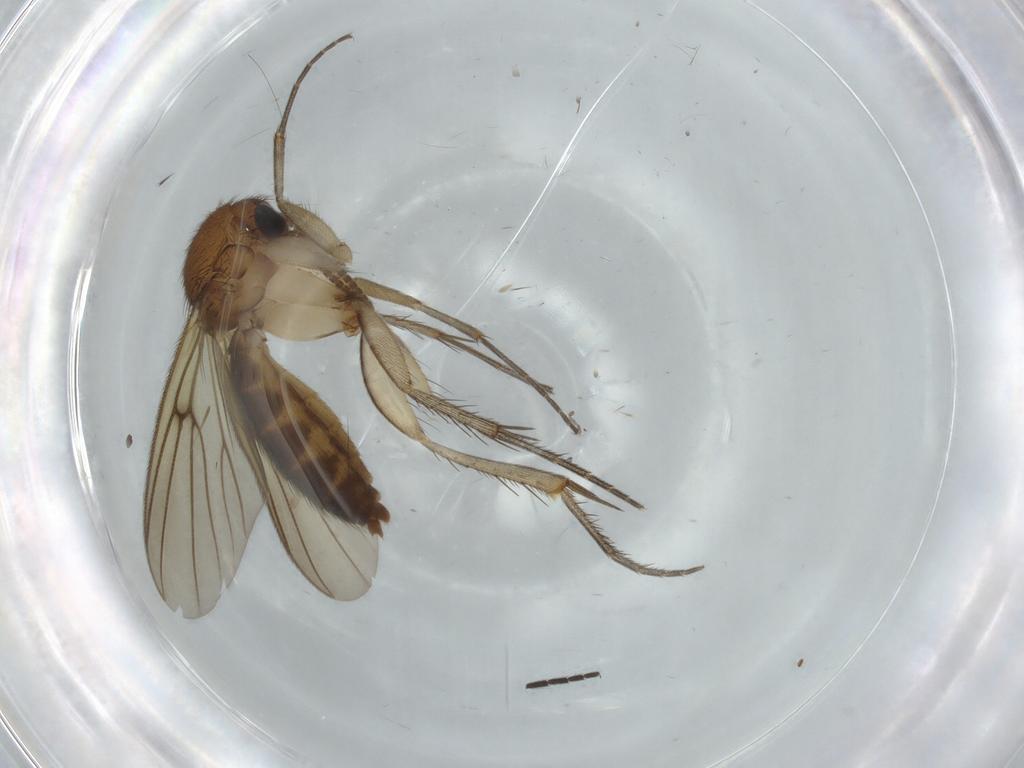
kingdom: Animalia
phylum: Arthropoda
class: Insecta
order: Diptera
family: Mycetophilidae
